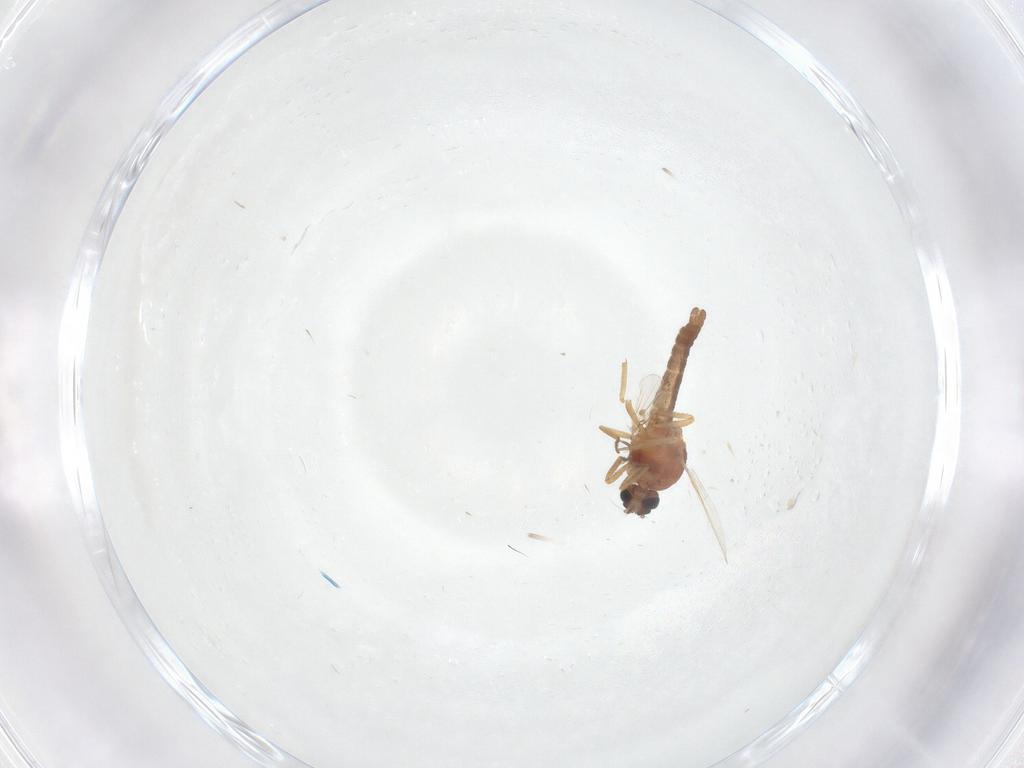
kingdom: Animalia
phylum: Arthropoda
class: Insecta
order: Diptera
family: Ceratopogonidae
